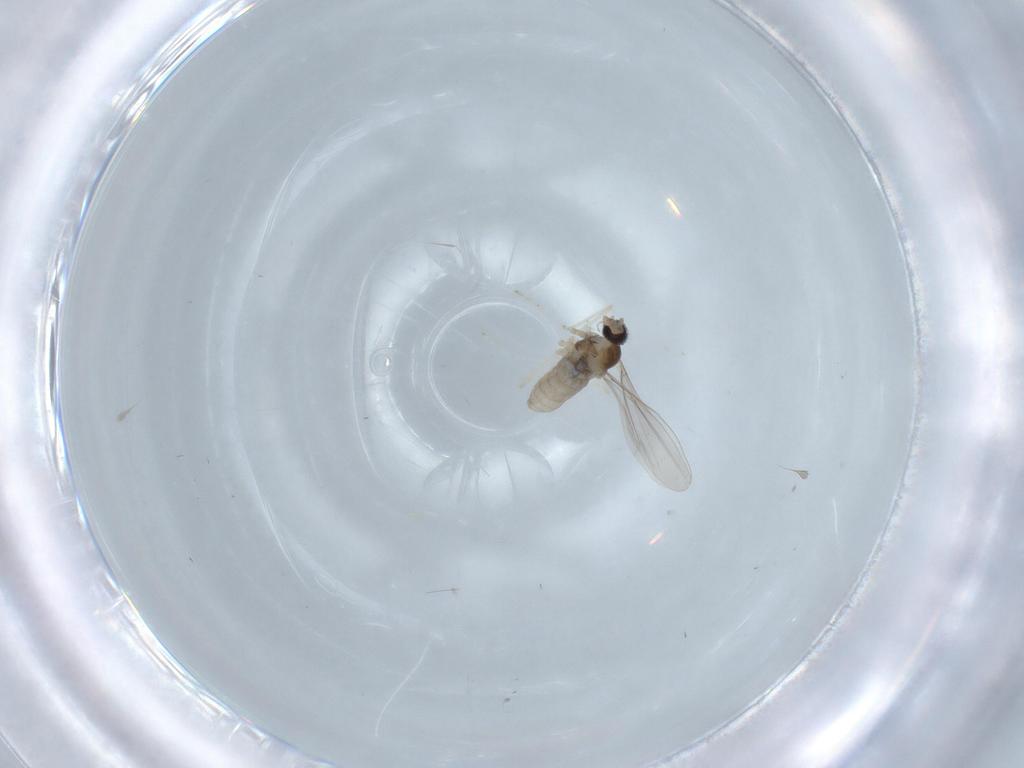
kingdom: Animalia
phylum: Arthropoda
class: Insecta
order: Diptera
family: Cecidomyiidae
